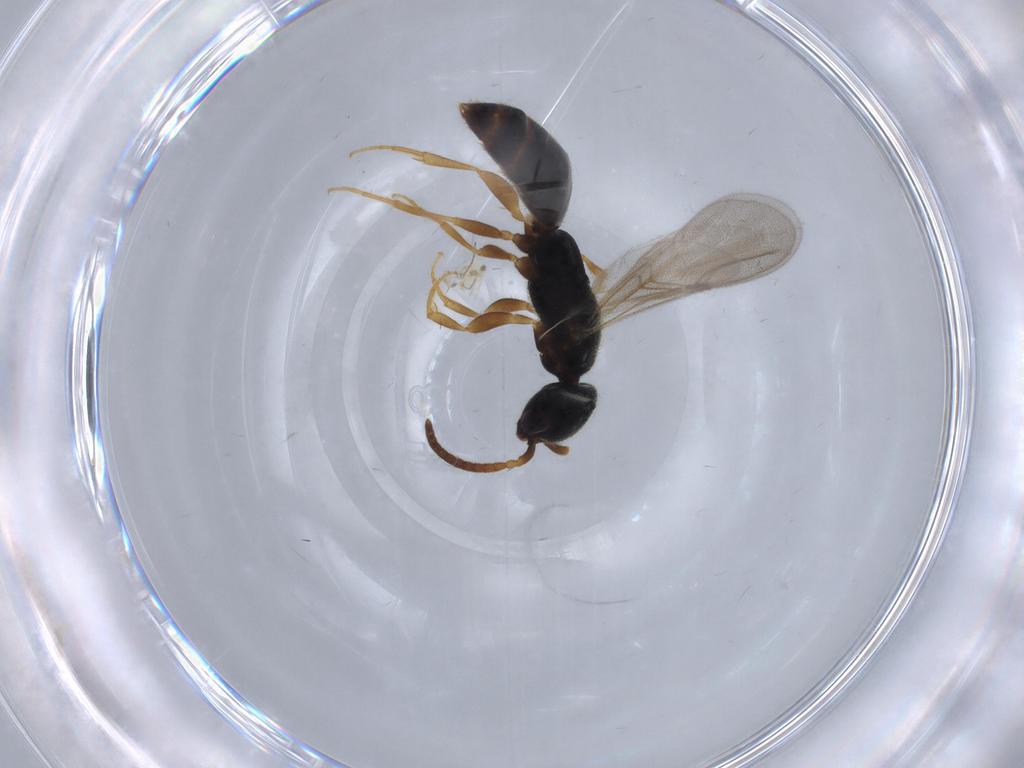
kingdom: Animalia
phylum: Arthropoda
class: Insecta
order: Hymenoptera
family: Bethylidae
